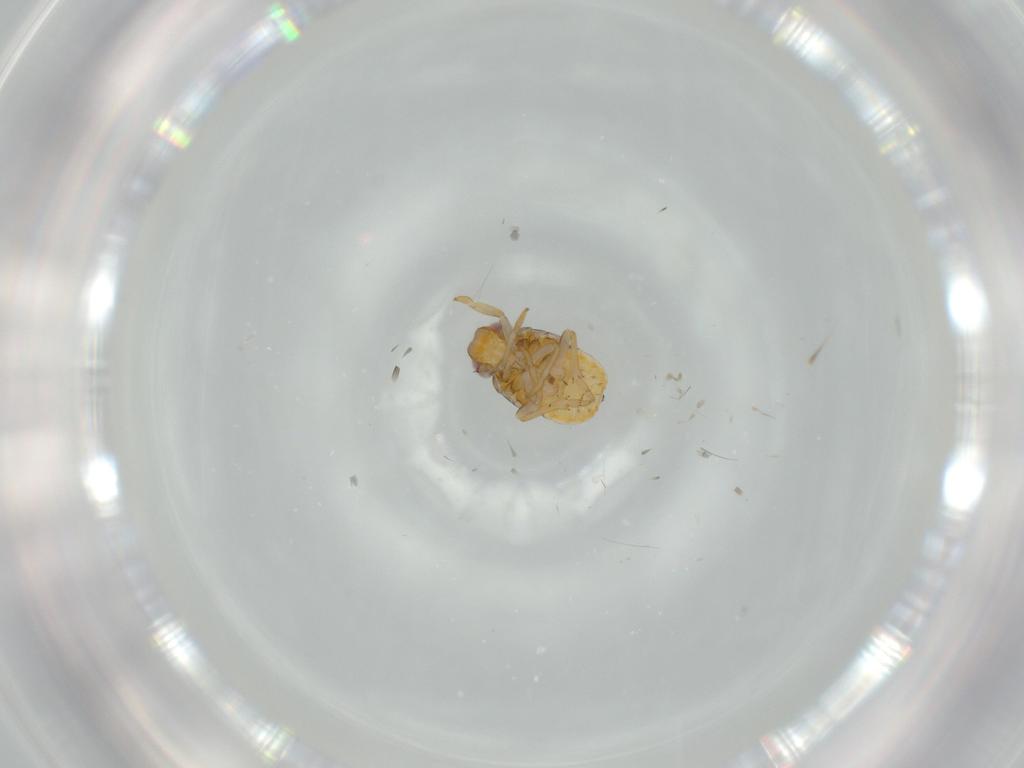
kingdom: Animalia
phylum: Arthropoda
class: Insecta
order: Hemiptera
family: Issidae
